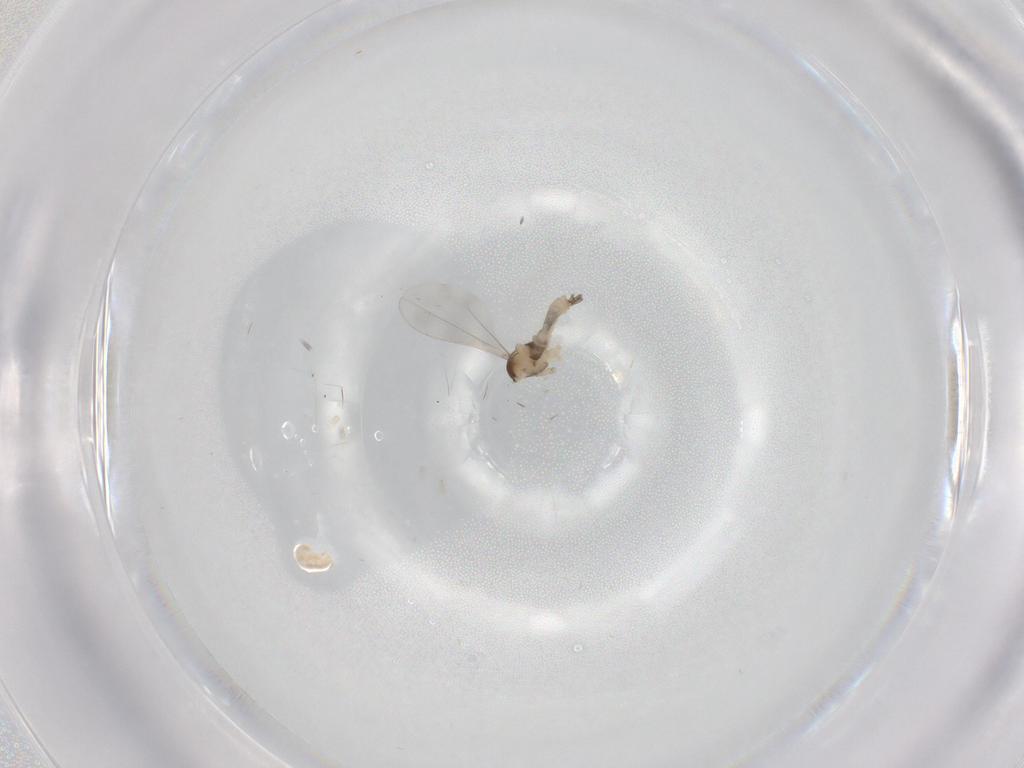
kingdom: Animalia
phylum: Arthropoda
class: Insecta
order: Diptera
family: Cecidomyiidae
